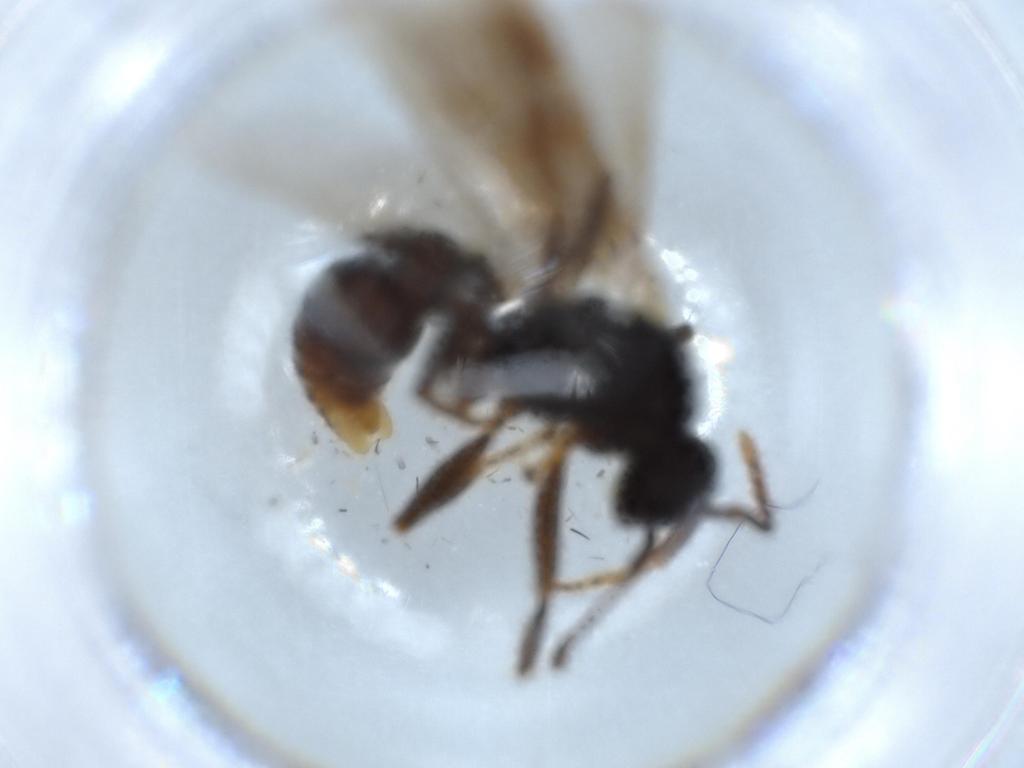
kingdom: Animalia
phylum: Arthropoda
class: Insecta
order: Hymenoptera
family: Formicidae
